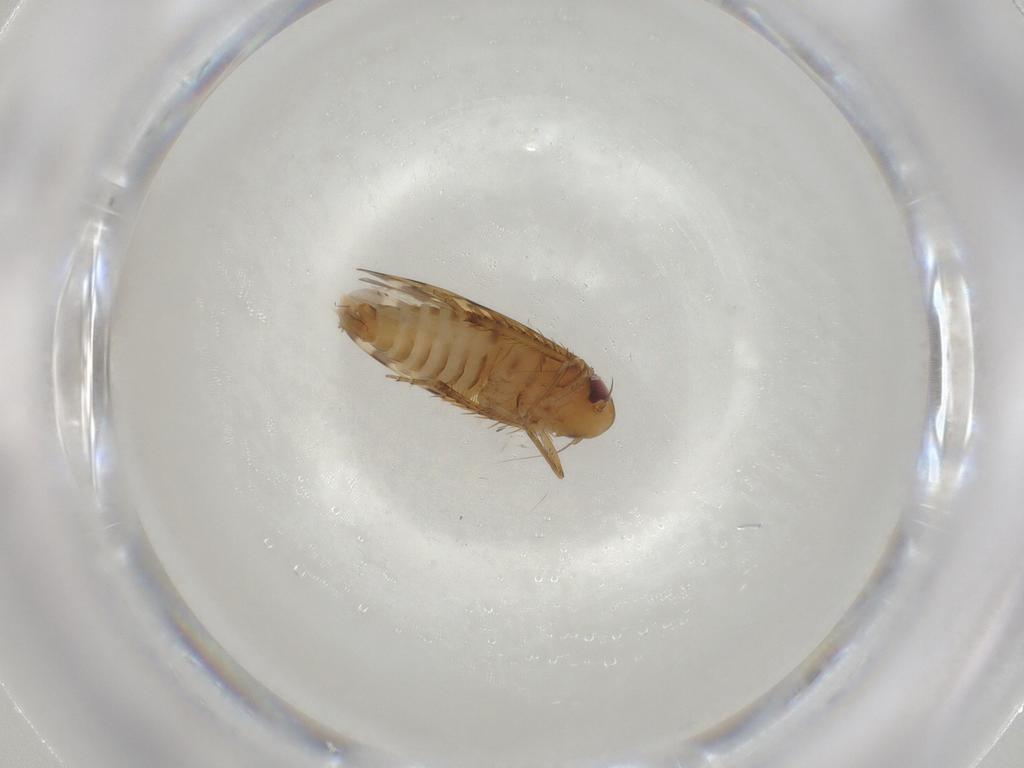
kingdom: Animalia
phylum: Arthropoda
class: Insecta
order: Hemiptera
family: Cicadellidae
